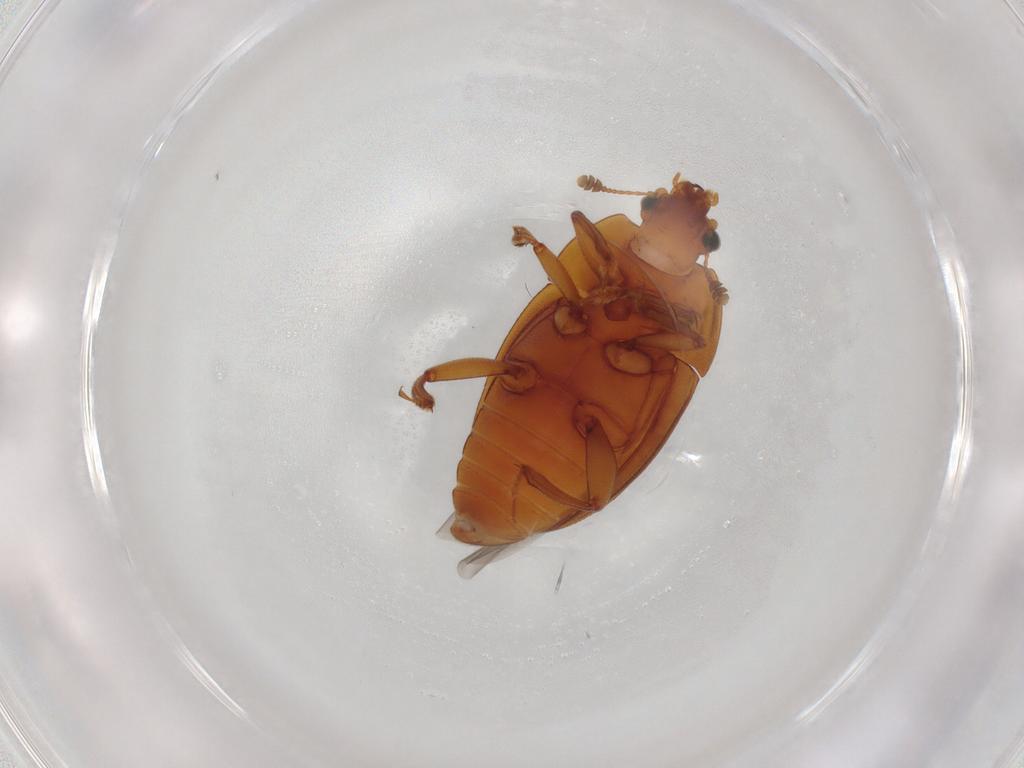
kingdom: Animalia
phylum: Arthropoda
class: Insecta
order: Coleoptera
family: Nitidulidae
